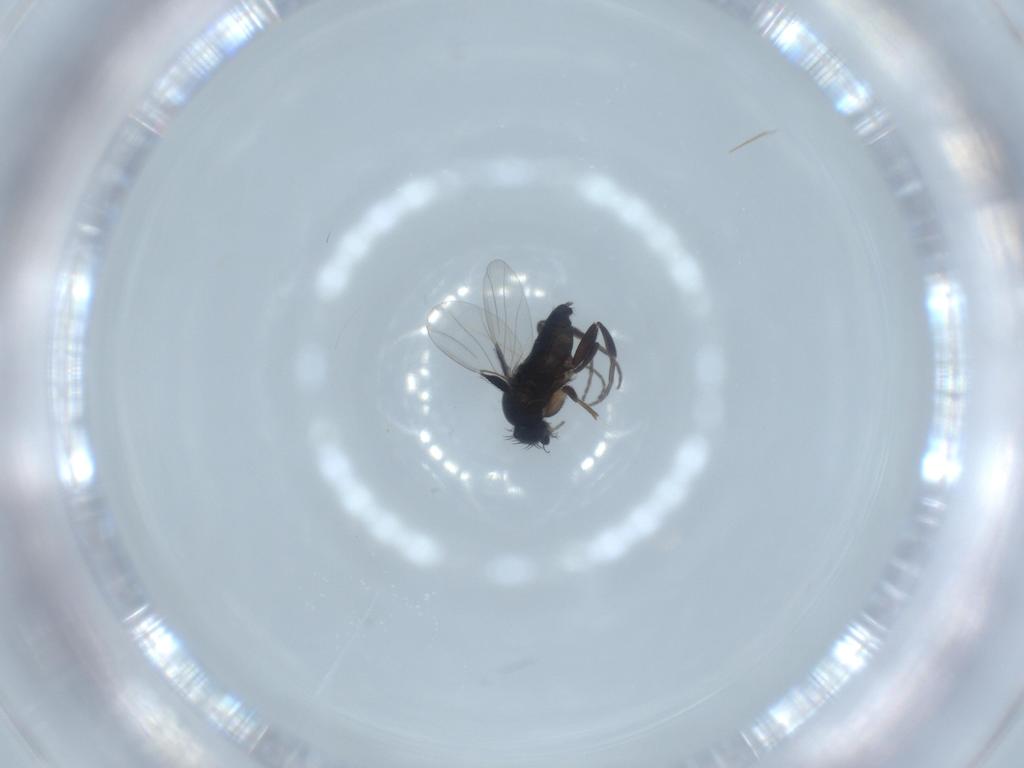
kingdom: Animalia
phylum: Arthropoda
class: Insecta
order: Diptera
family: Phoridae
